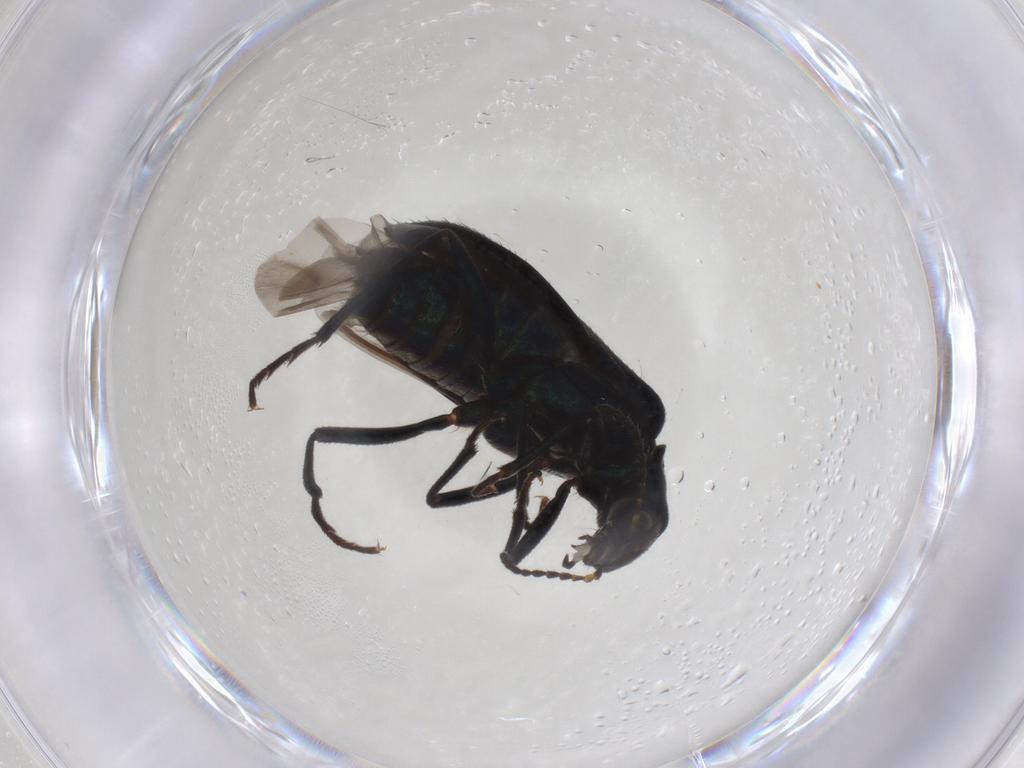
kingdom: Animalia
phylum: Arthropoda
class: Insecta
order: Coleoptera
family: Melyridae
